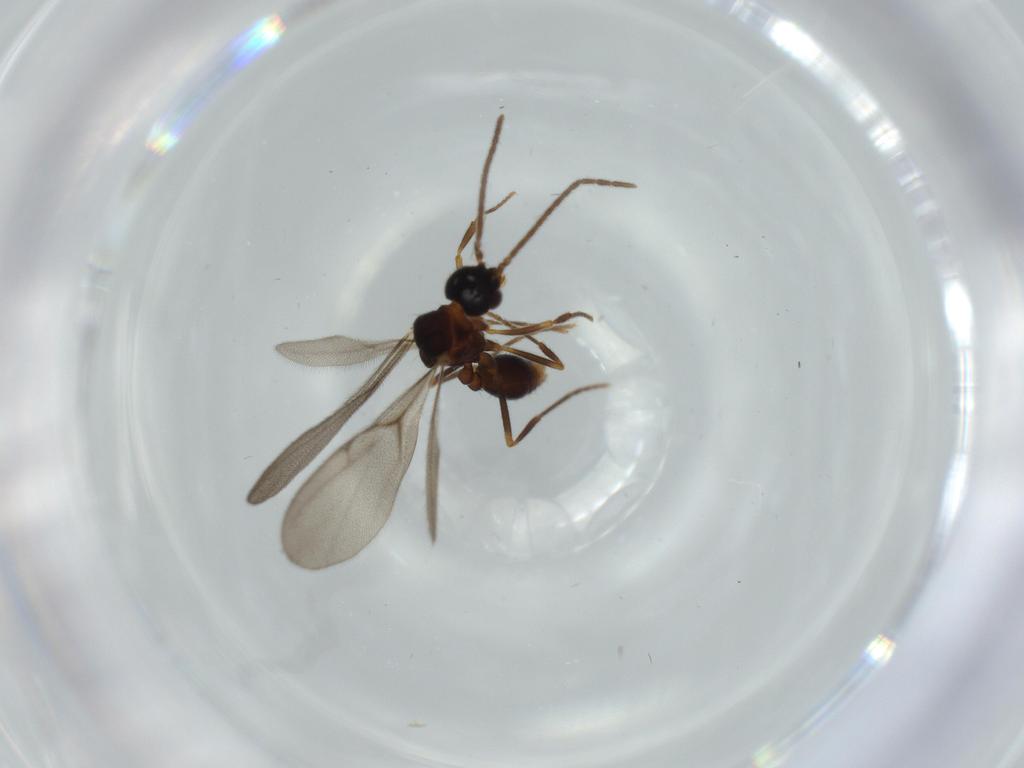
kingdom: Animalia
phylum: Arthropoda
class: Insecta
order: Hymenoptera
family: Formicidae
